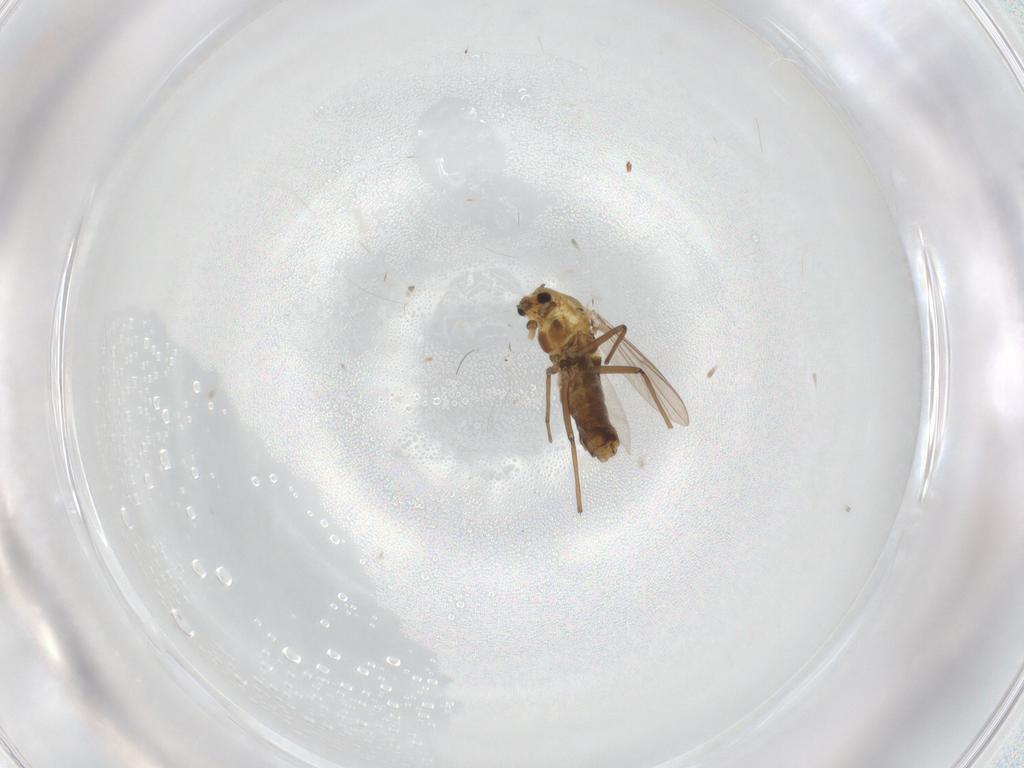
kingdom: Animalia
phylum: Arthropoda
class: Insecta
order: Diptera
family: Chironomidae
